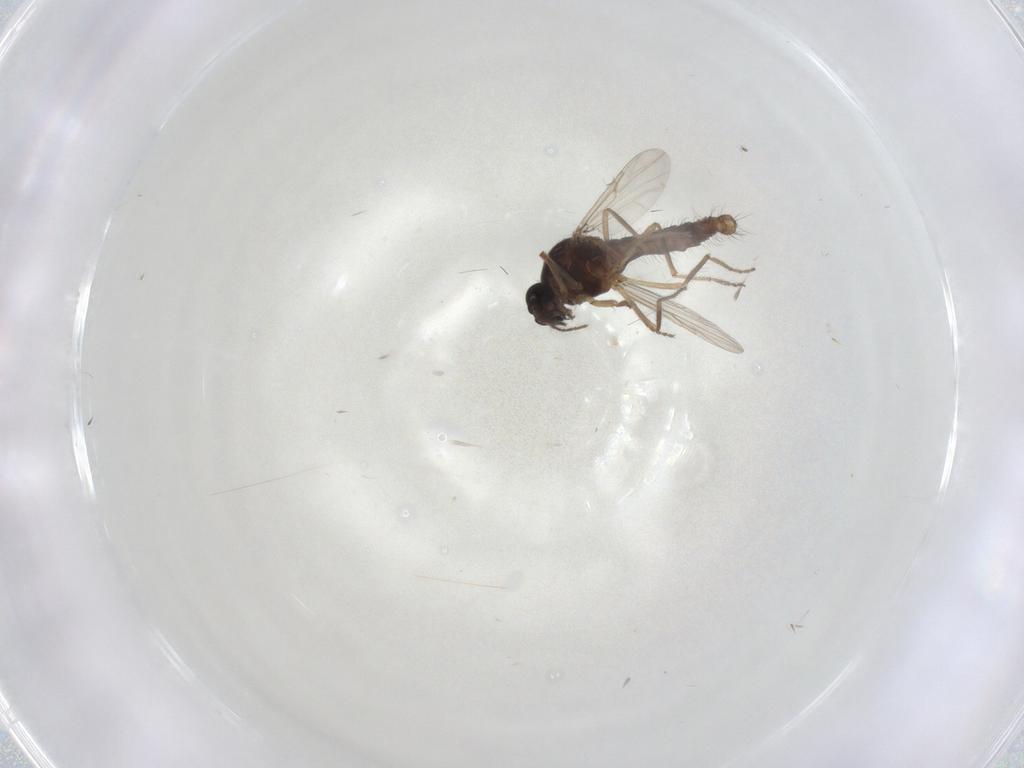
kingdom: Animalia
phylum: Arthropoda
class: Insecta
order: Diptera
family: Ceratopogonidae
